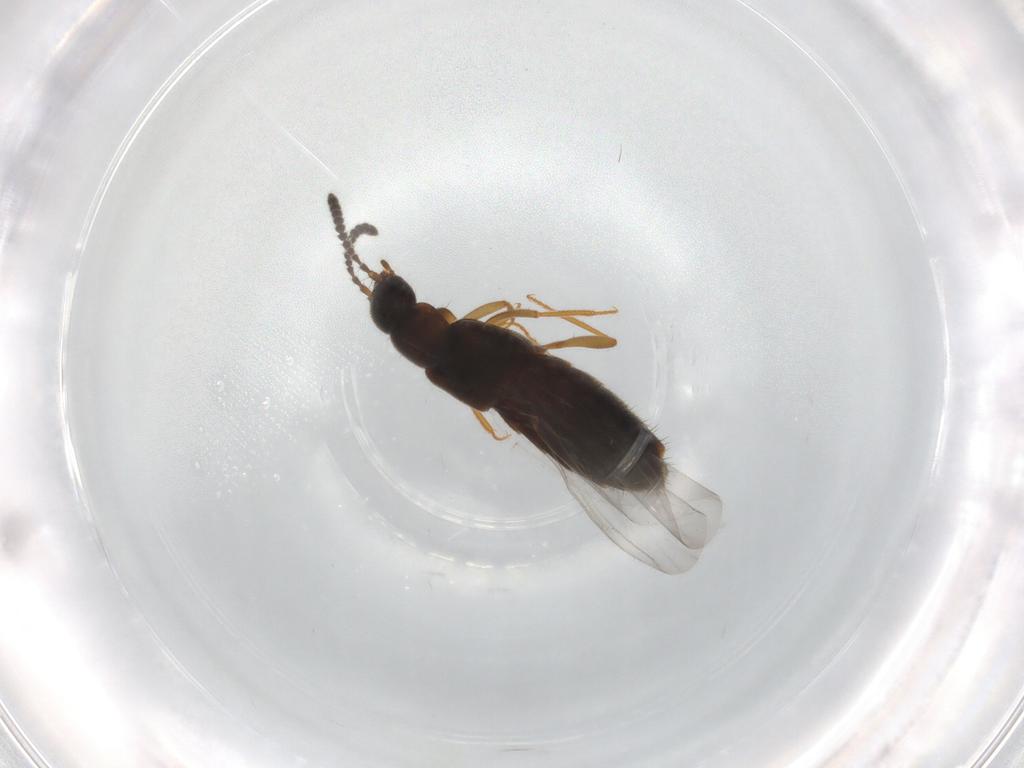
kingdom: Animalia
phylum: Arthropoda
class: Insecta
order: Coleoptera
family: Staphylinidae
